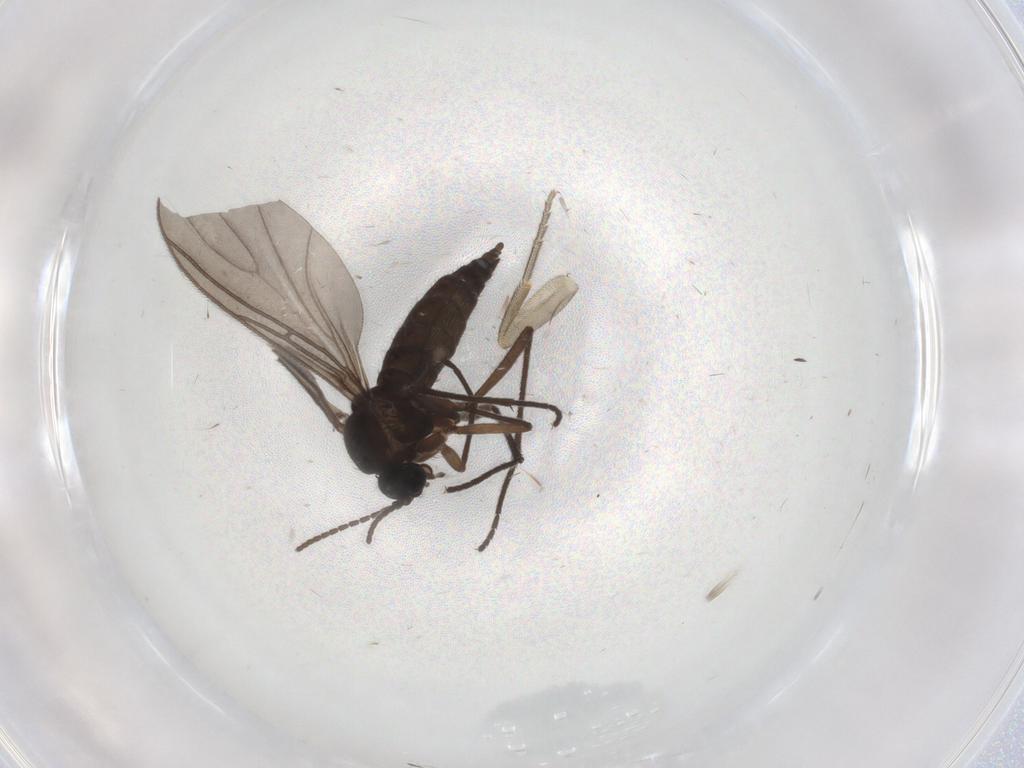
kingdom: Animalia
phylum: Arthropoda
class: Insecta
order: Diptera
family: Sciaridae
